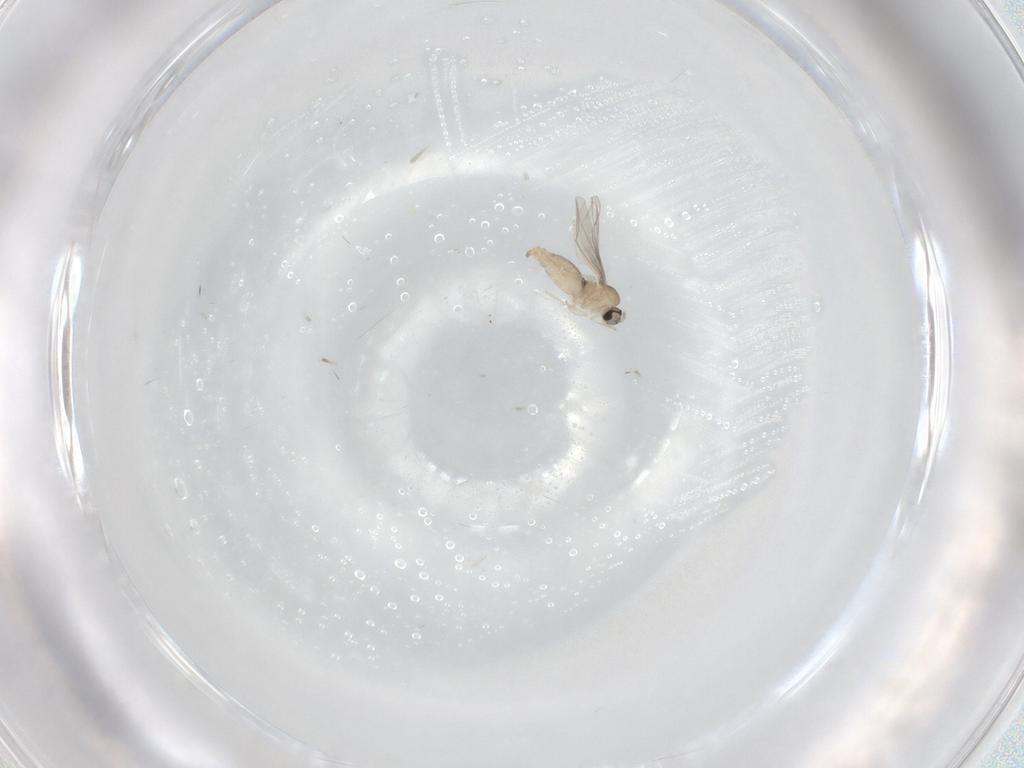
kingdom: Animalia
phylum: Arthropoda
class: Insecta
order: Diptera
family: Cecidomyiidae
